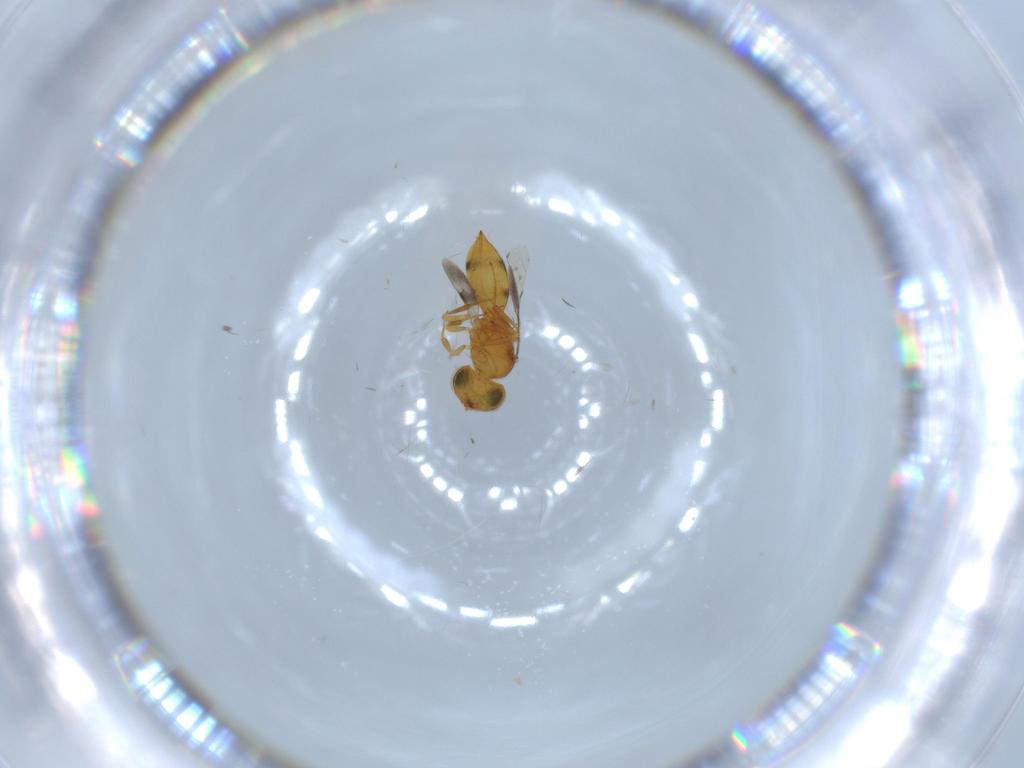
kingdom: Animalia
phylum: Arthropoda
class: Insecta
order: Hymenoptera
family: Scelionidae
